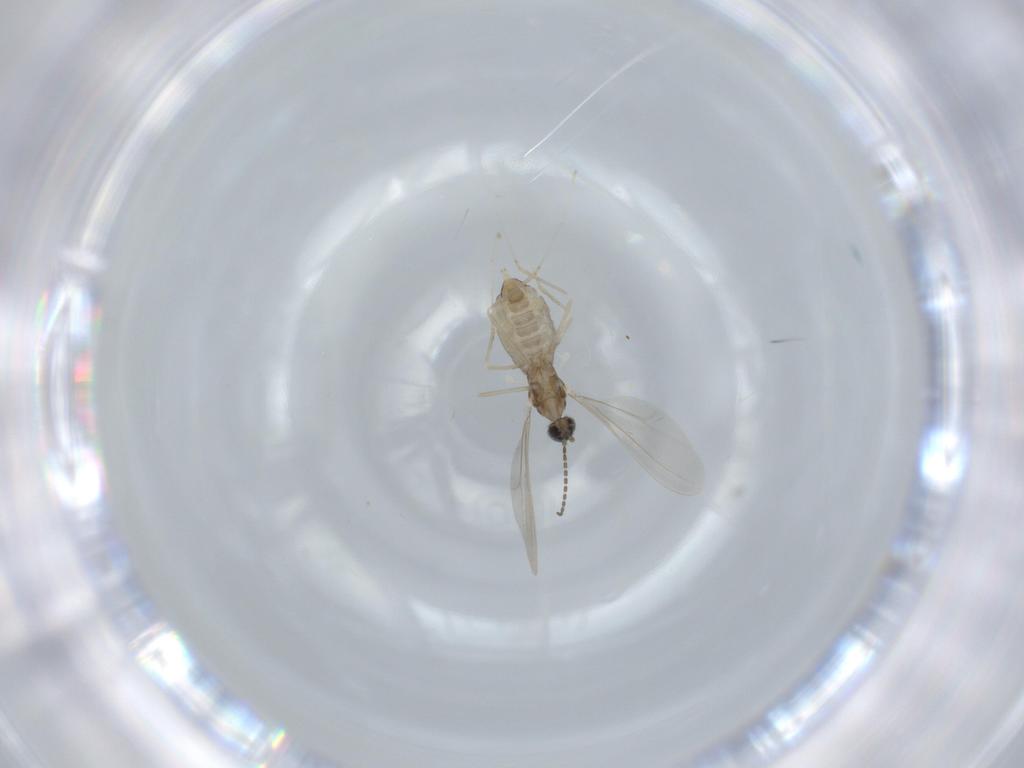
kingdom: Animalia
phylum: Arthropoda
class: Insecta
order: Diptera
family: Cecidomyiidae
